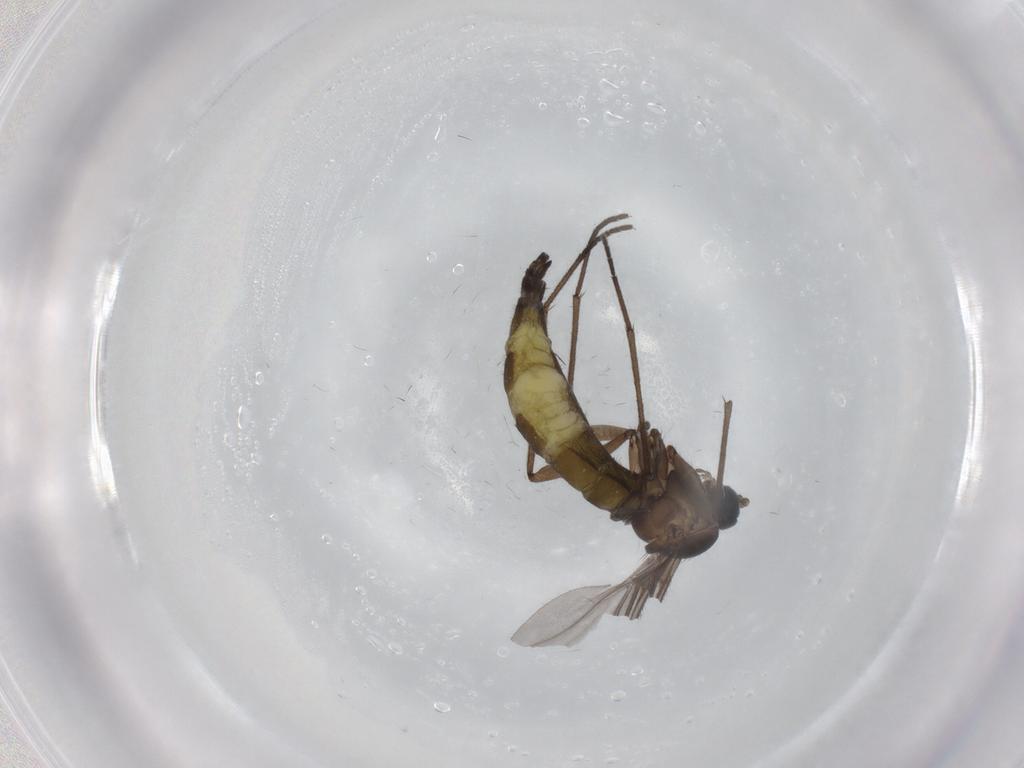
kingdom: Animalia
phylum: Arthropoda
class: Insecta
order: Diptera
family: Sciaridae
